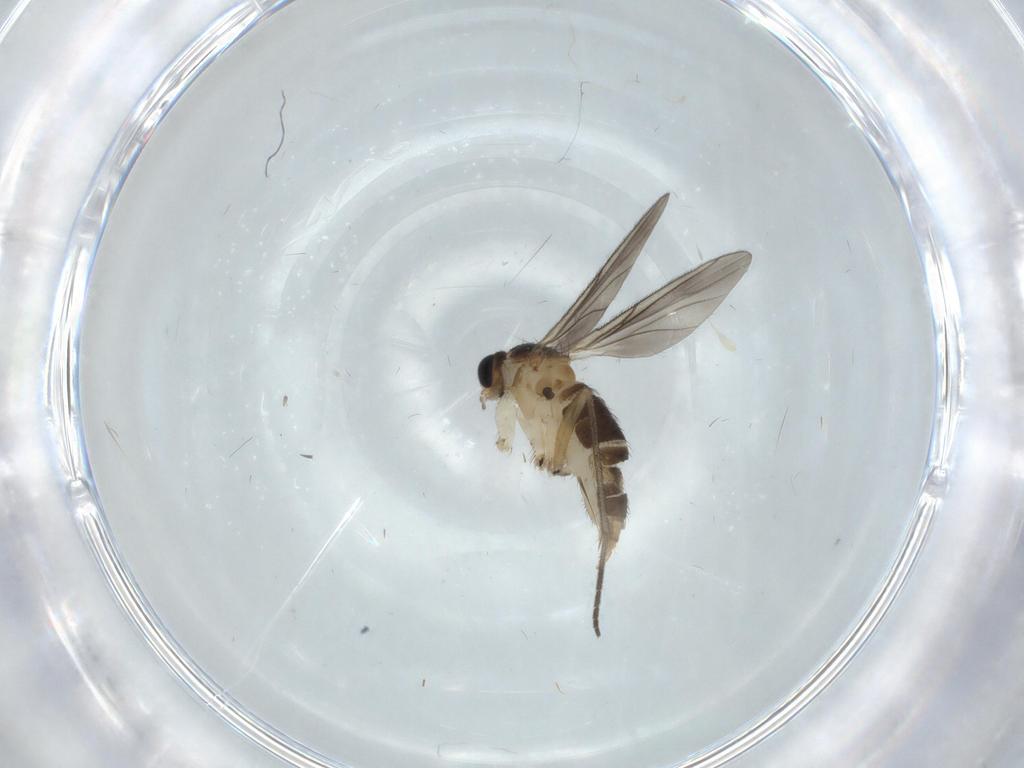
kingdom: Animalia
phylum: Arthropoda
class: Insecta
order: Diptera
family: Sciaridae
